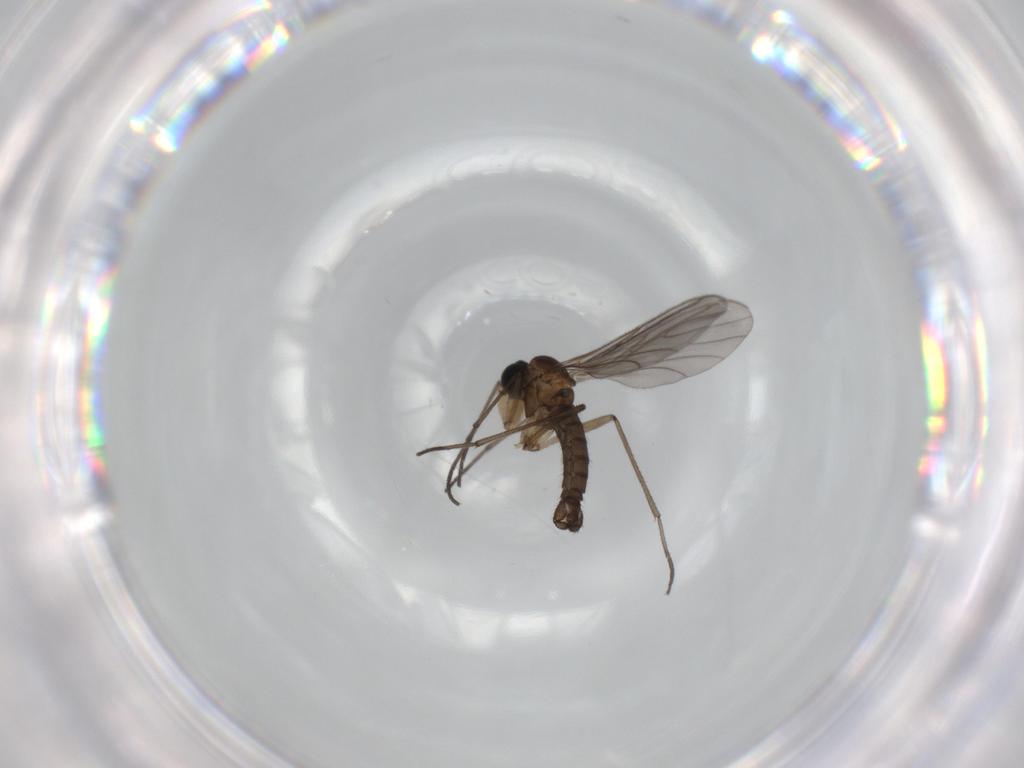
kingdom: Animalia
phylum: Arthropoda
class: Insecta
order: Diptera
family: Sciaridae
